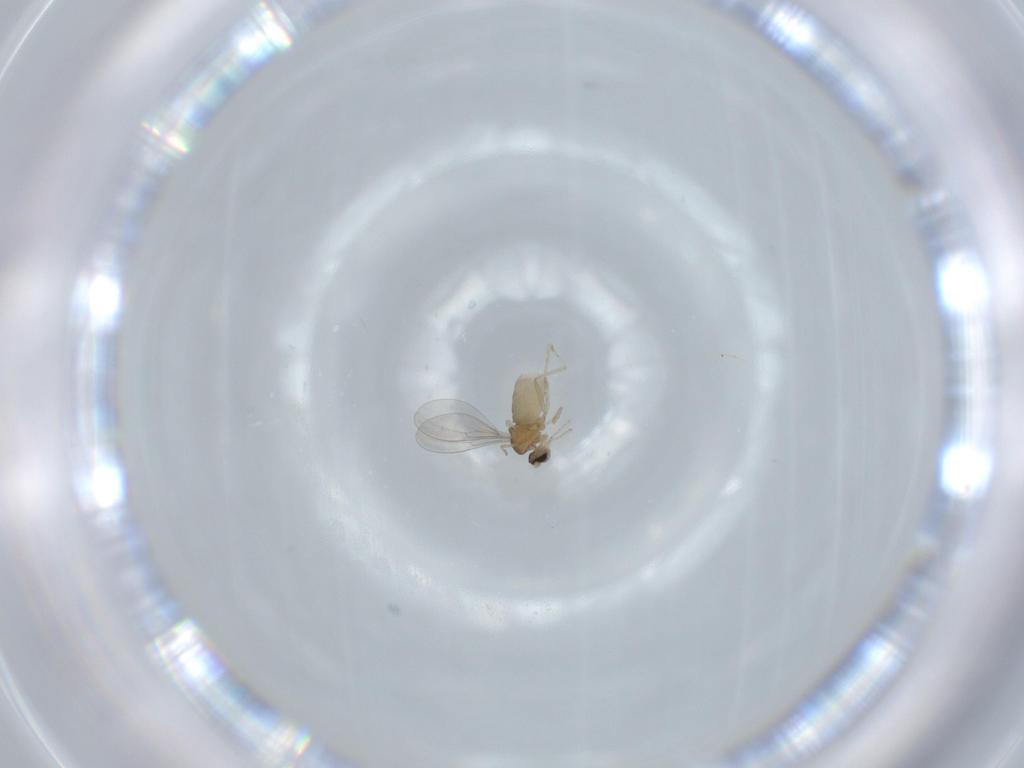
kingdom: Animalia
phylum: Arthropoda
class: Insecta
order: Diptera
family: Cecidomyiidae
